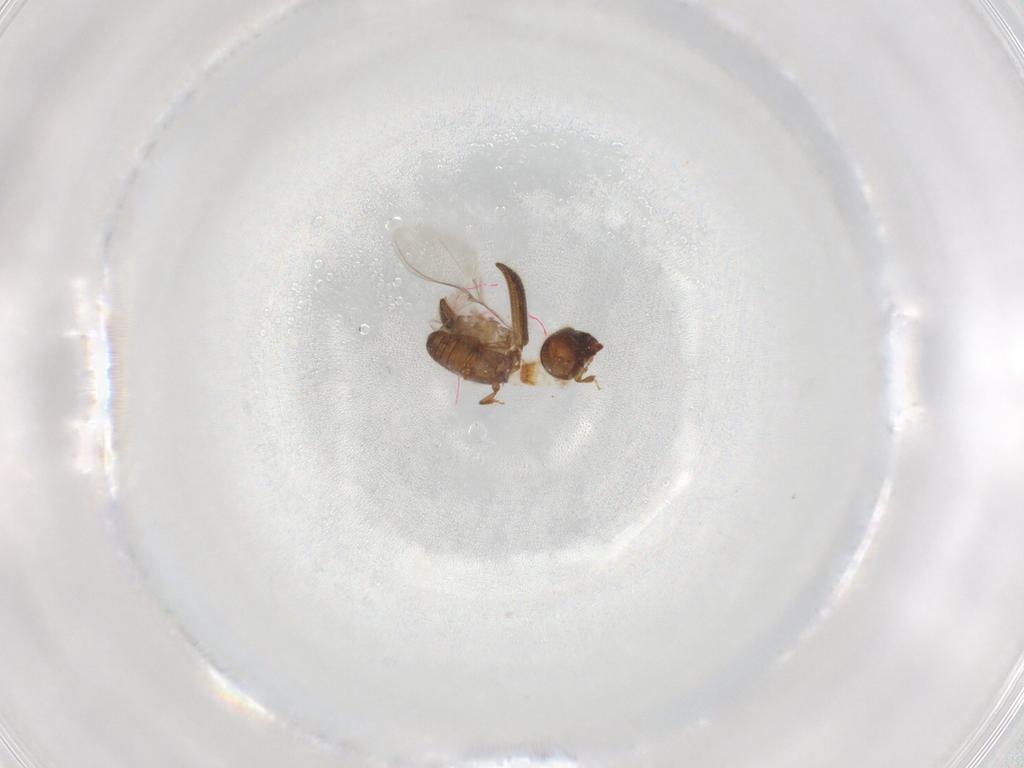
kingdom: Animalia
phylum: Arthropoda
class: Insecta
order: Coleoptera
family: Curculionidae
